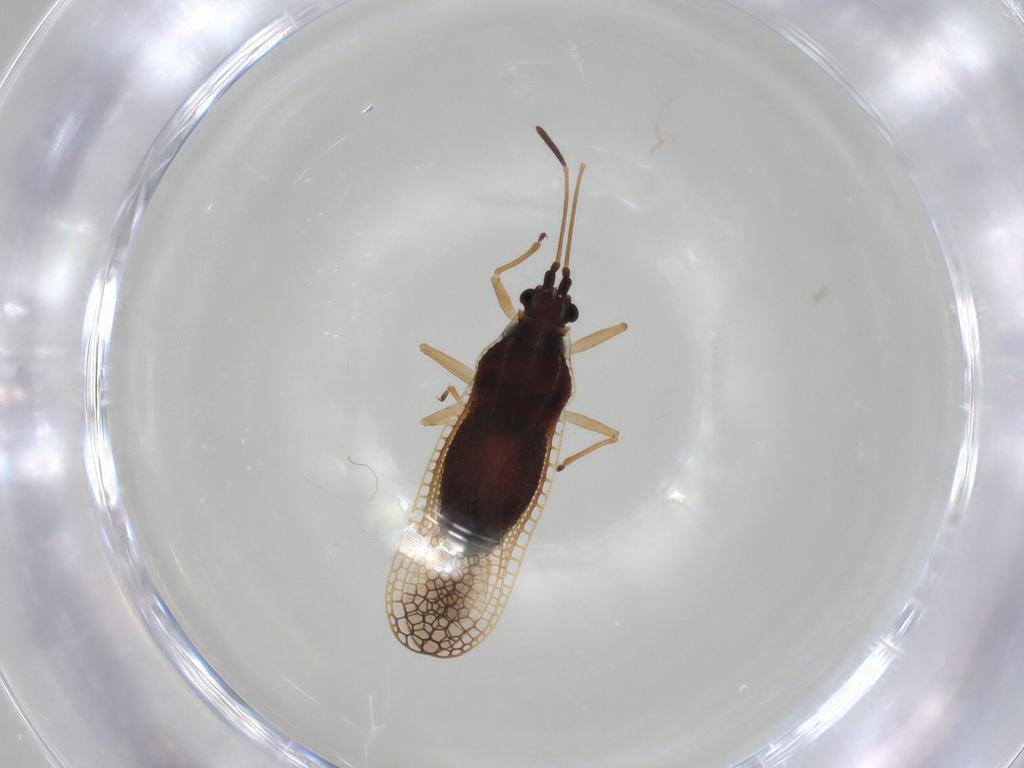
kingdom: Animalia
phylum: Arthropoda
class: Insecta
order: Hemiptera
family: Tingidae
